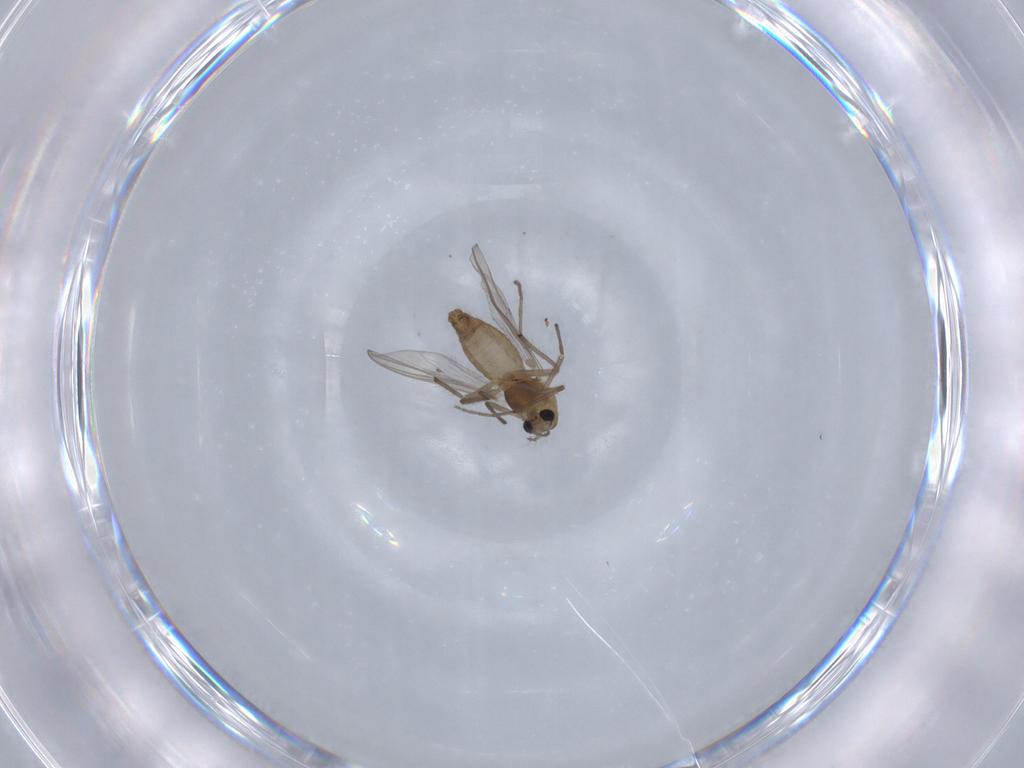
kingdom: Animalia
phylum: Arthropoda
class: Insecta
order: Diptera
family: Chironomidae
